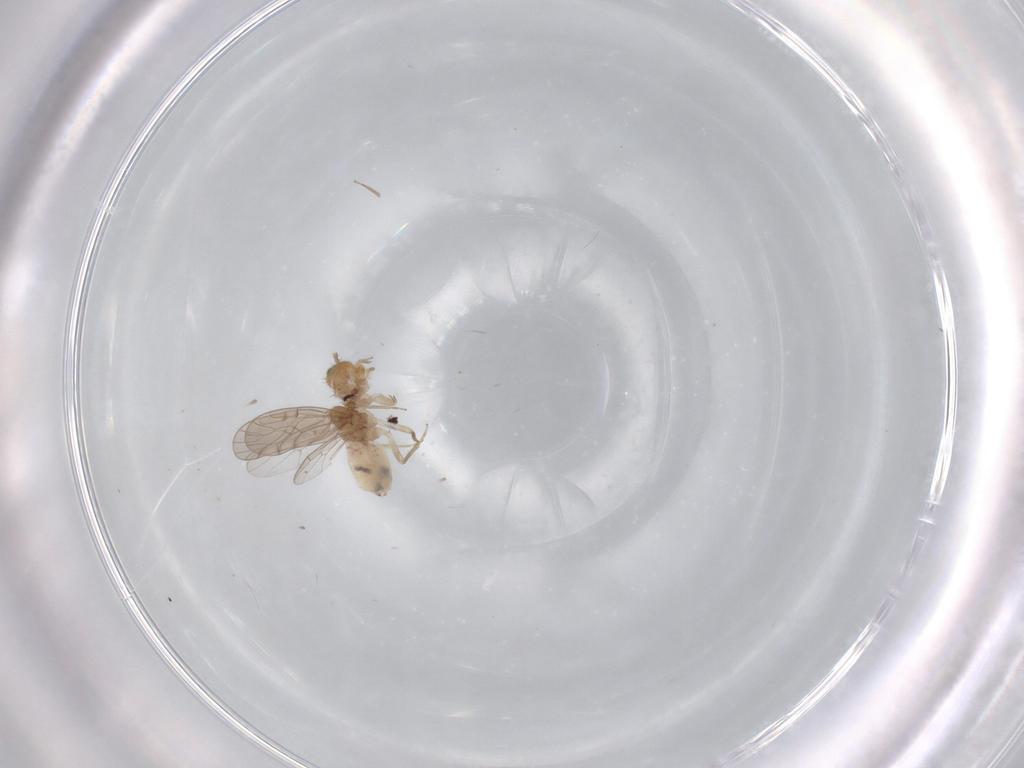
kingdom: Animalia
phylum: Arthropoda
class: Insecta
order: Psocodea
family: Ectopsocidae
